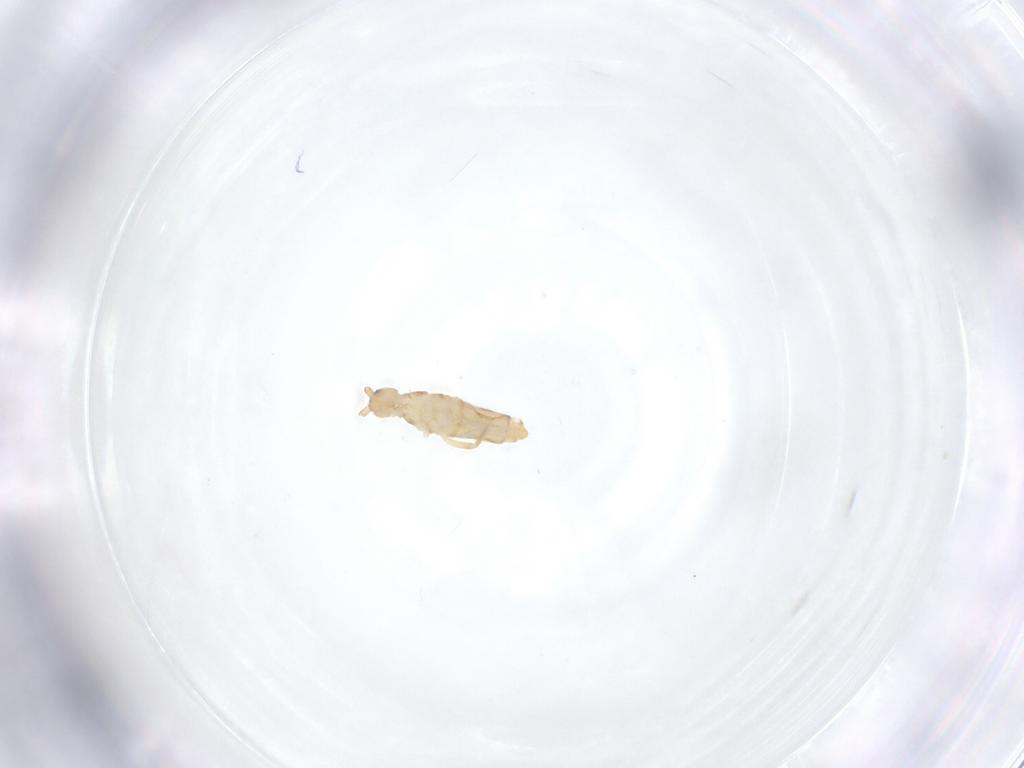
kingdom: Animalia
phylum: Arthropoda
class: Collembola
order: Entomobryomorpha
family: Entomobryidae
